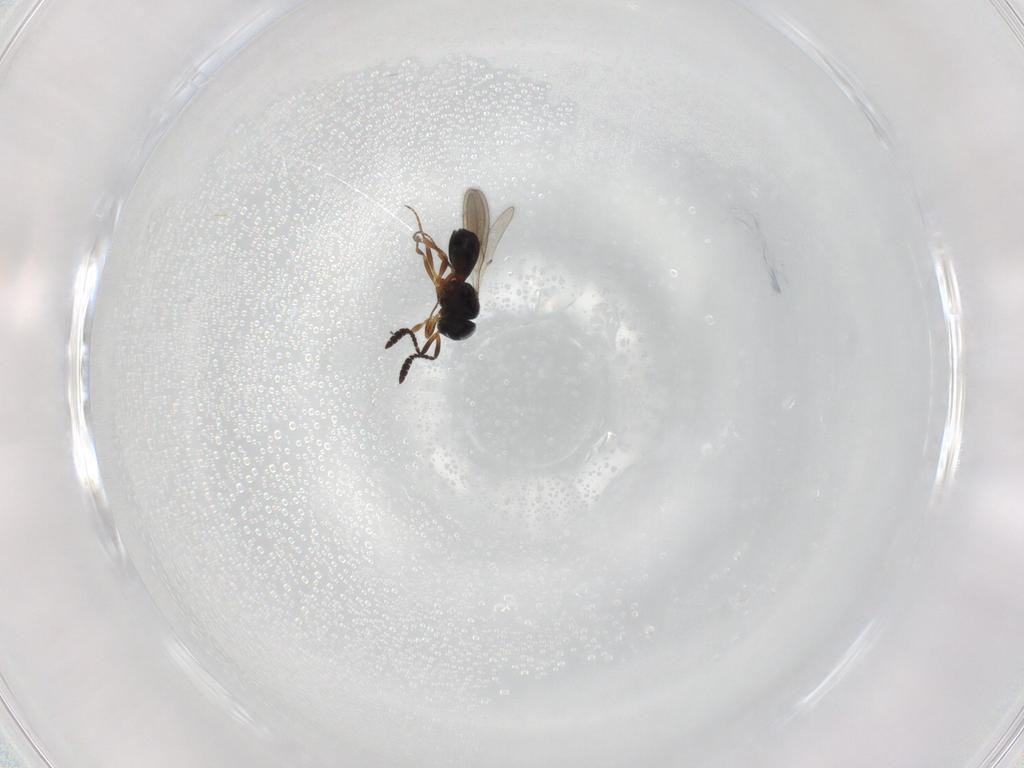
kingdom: Animalia
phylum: Arthropoda
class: Insecta
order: Hymenoptera
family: Scelionidae
